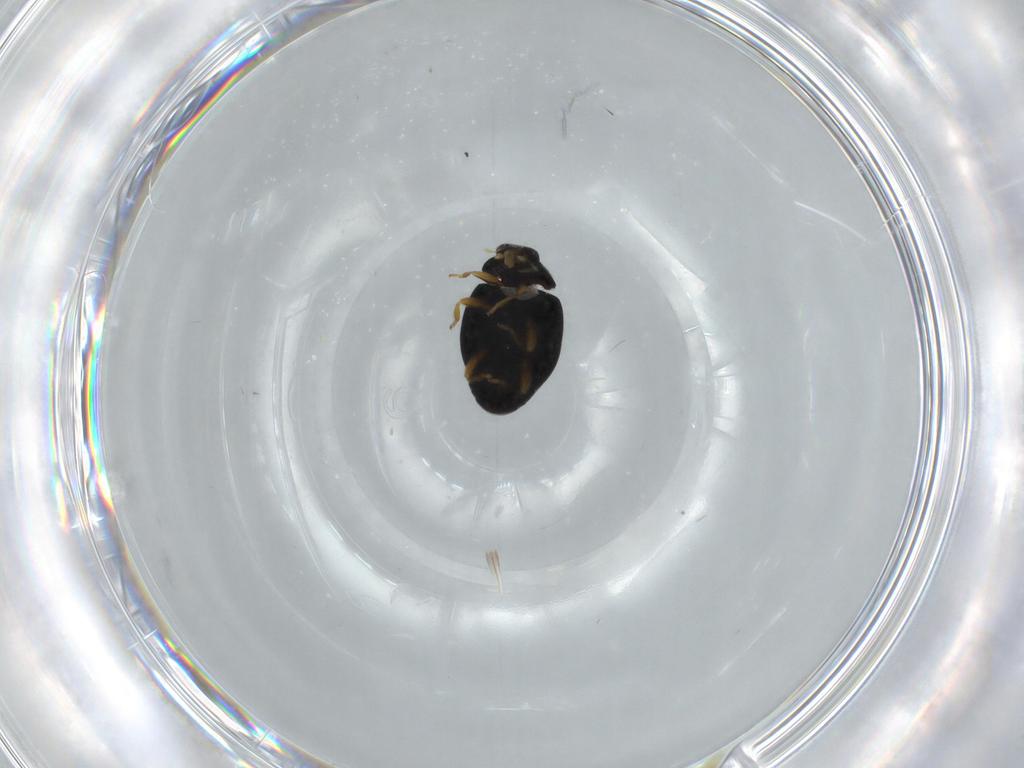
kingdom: Animalia
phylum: Arthropoda
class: Insecta
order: Coleoptera
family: Coccinellidae
